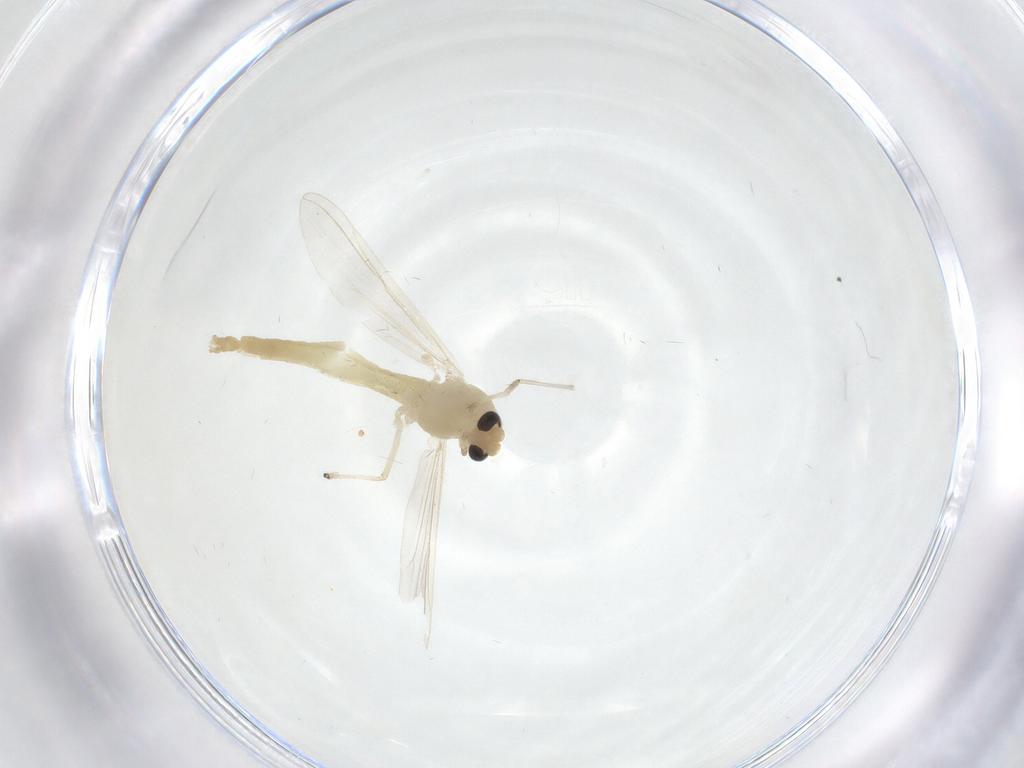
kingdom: Animalia
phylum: Arthropoda
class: Insecta
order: Diptera
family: Chironomidae
